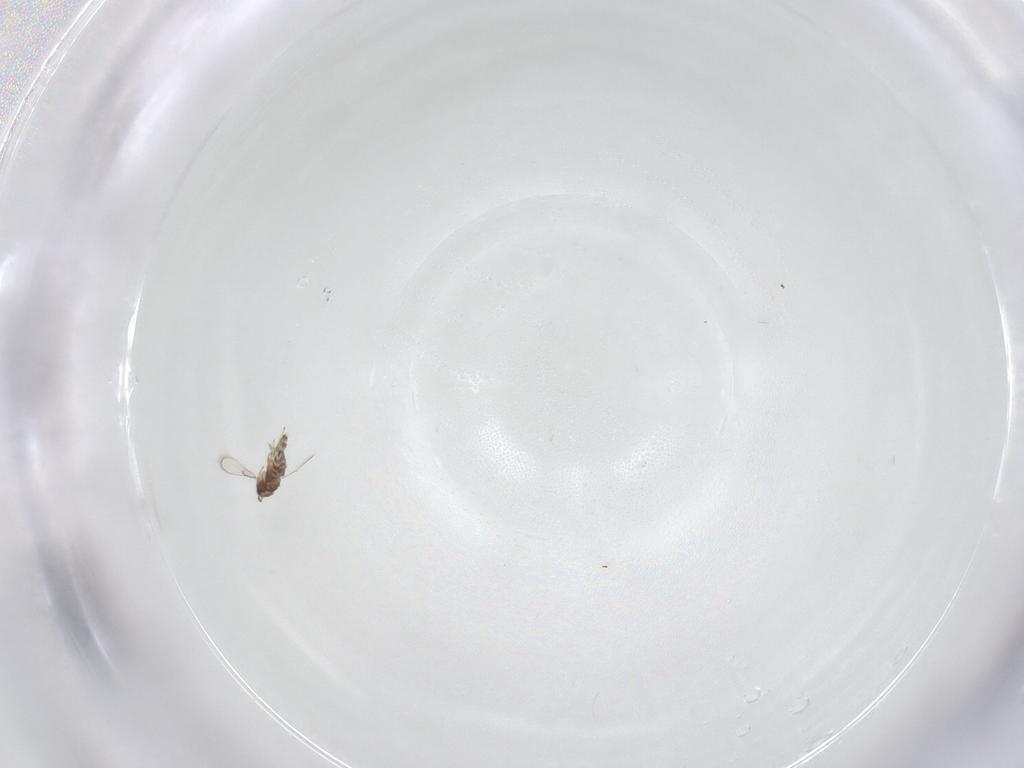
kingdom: Animalia
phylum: Arthropoda
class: Insecta
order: Hymenoptera
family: Trichogrammatidae
